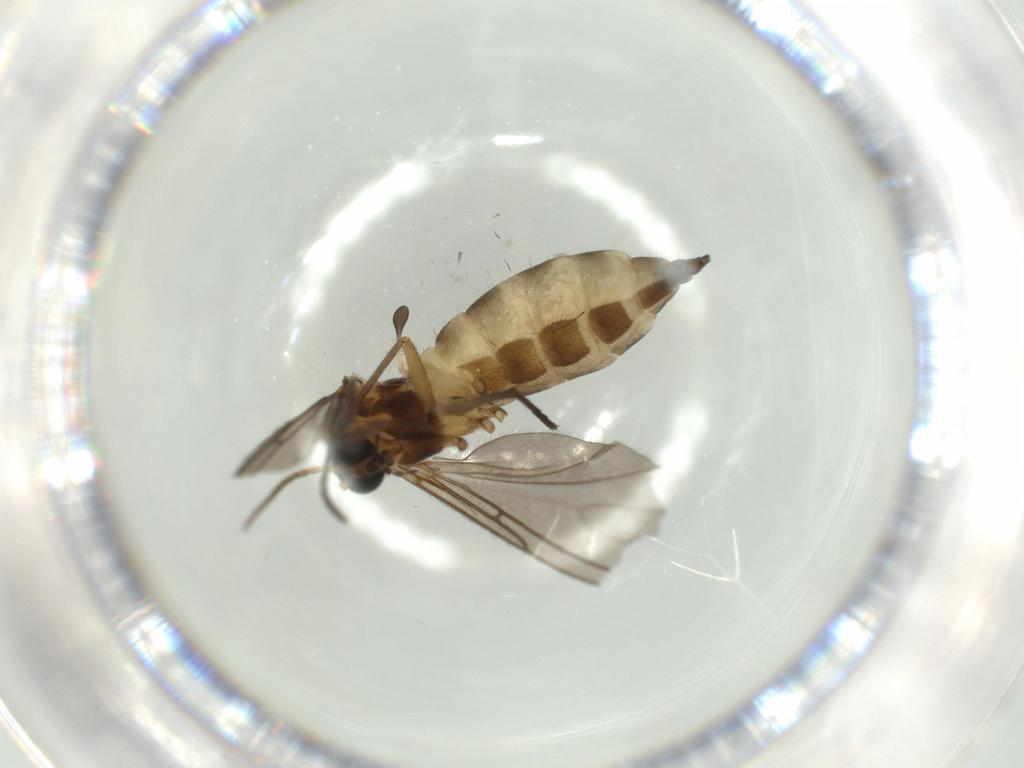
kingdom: Animalia
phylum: Arthropoda
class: Insecta
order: Diptera
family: Sciaridae
